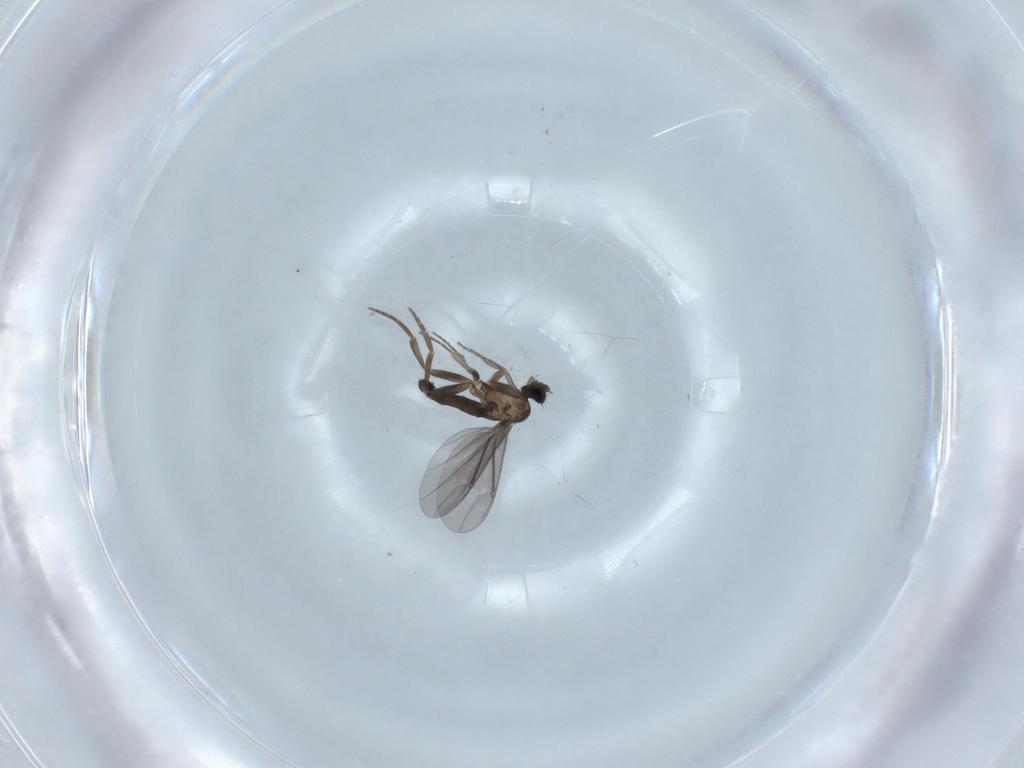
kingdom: Animalia
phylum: Arthropoda
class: Insecta
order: Diptera
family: Phoridae
